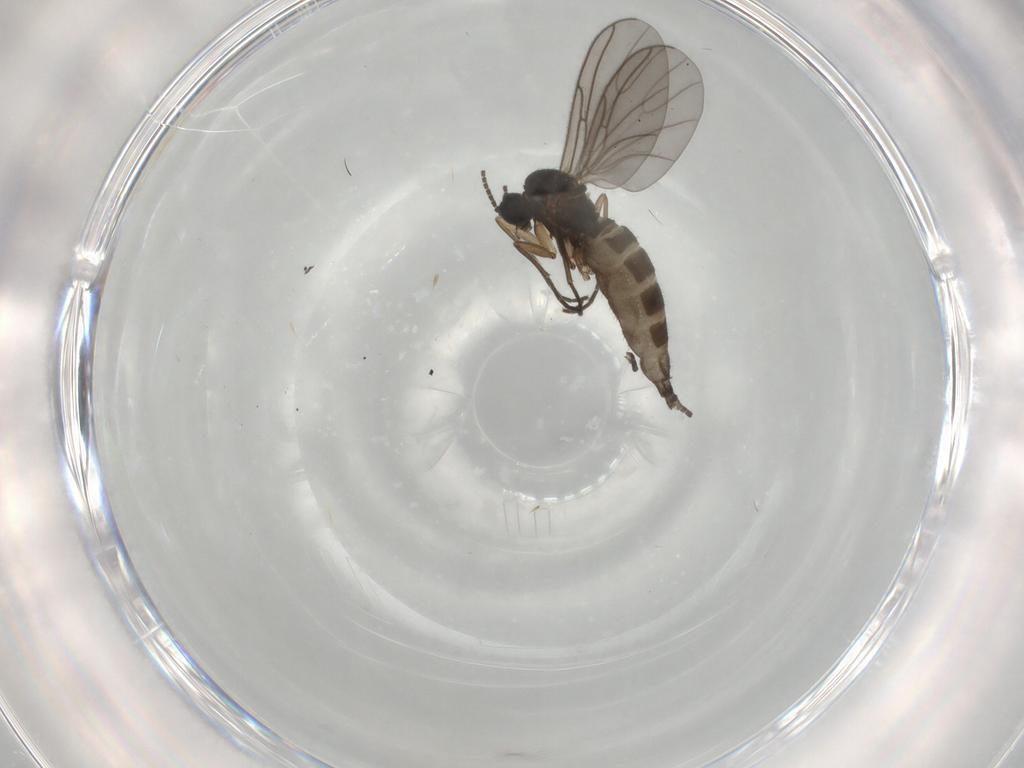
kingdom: Animalia
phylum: Arthropoda
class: Insecta
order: Diptera
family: Sciaridae
